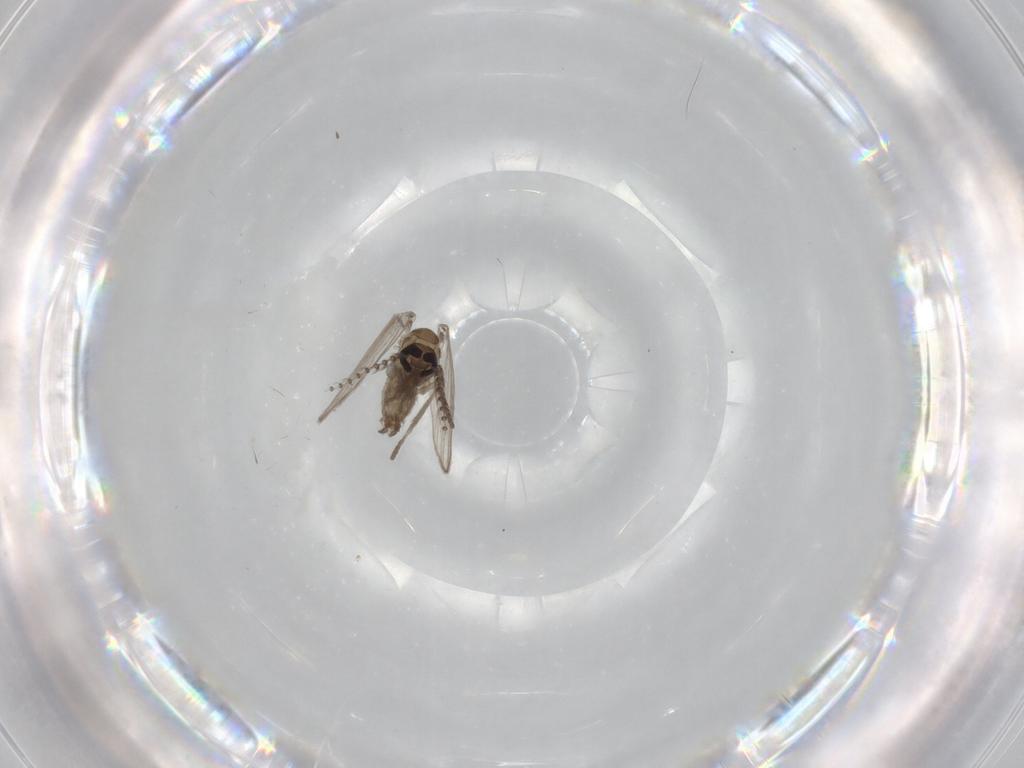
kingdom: Animalia
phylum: Arthropoda
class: Insecta
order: Diptera
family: Psychodidae
